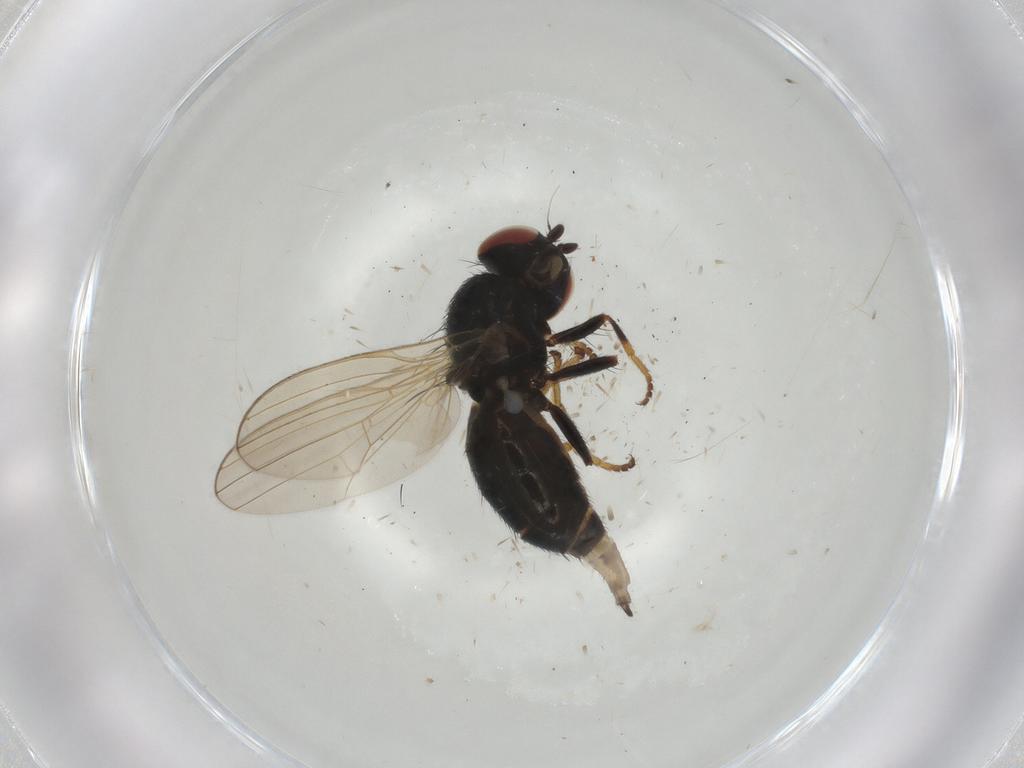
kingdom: Animalia
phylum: Arthropoda
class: Insecta
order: Diptera
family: Chamaemyiidae
